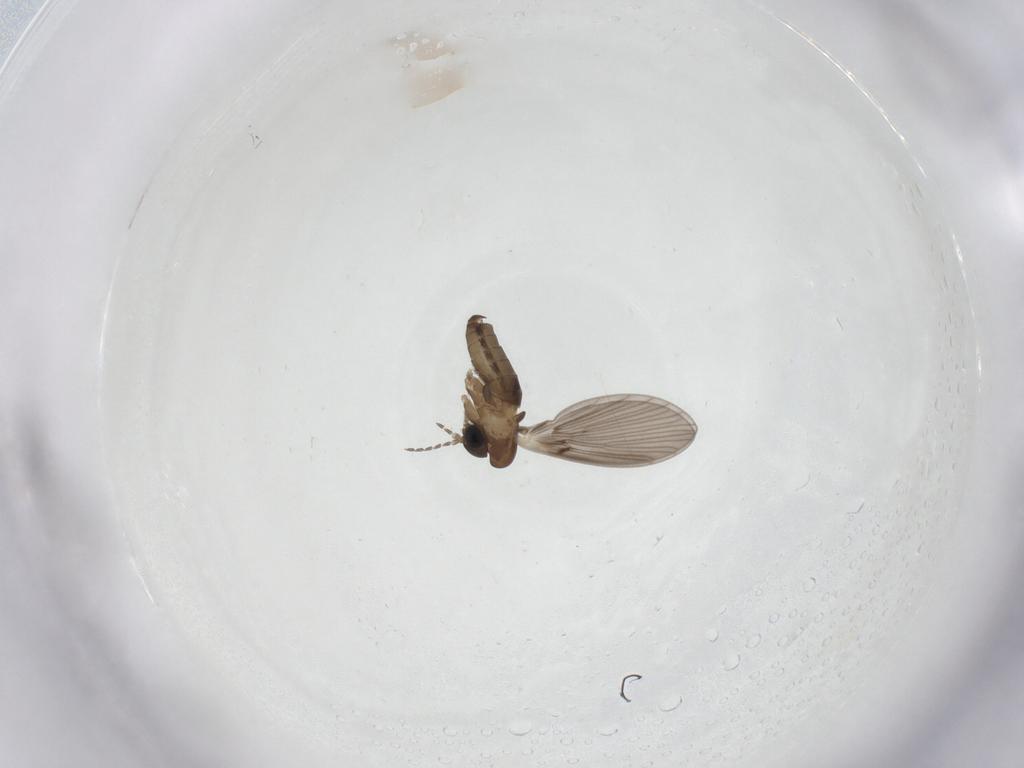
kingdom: Animalia
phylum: Arthropoda
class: Insecta
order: Diptera
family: Psychodidae
